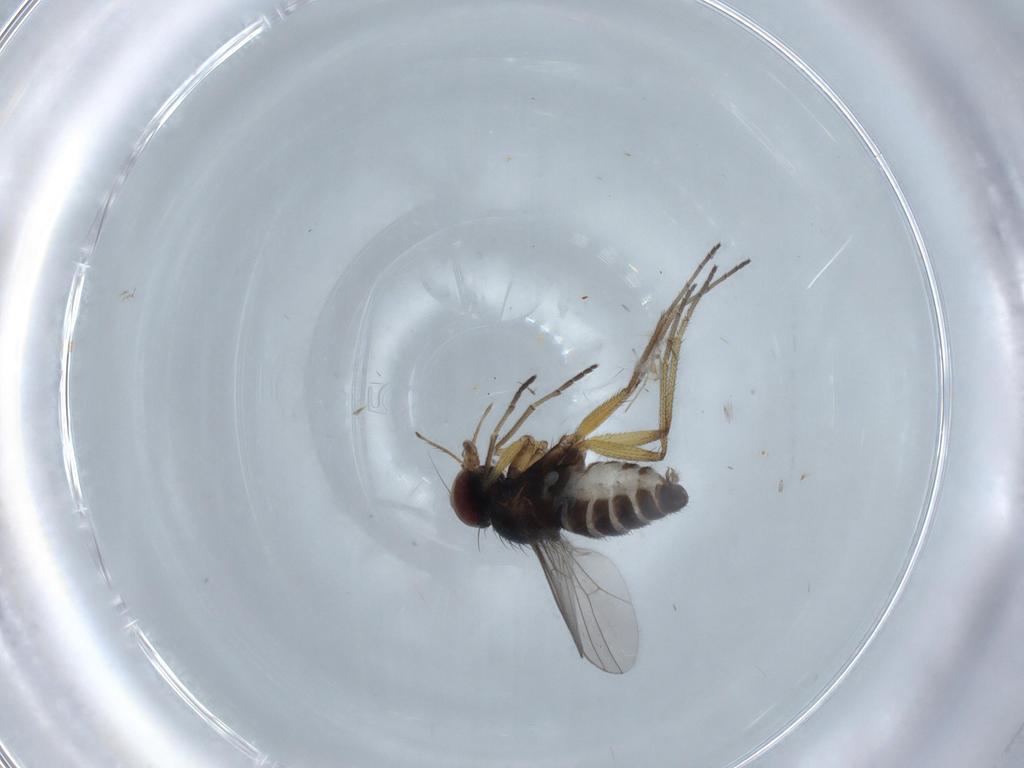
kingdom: Animalia
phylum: Arthropoda
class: Insecta
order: Diptera
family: Dolichopodidae
